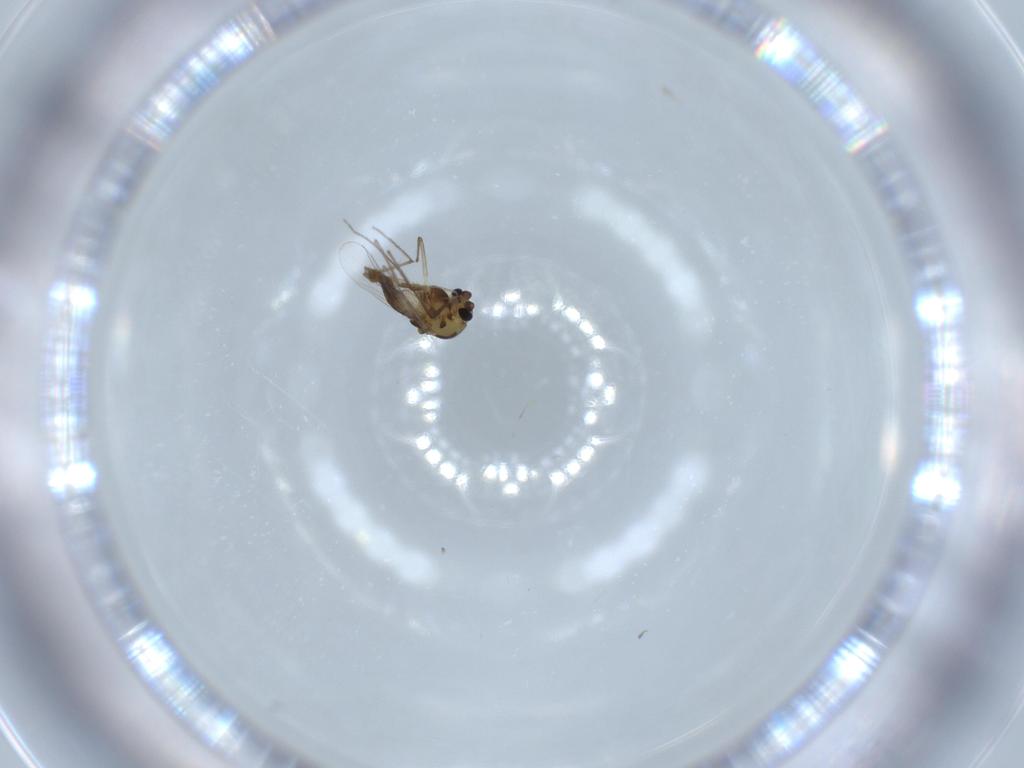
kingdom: Animalia
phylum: Arthropoda
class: Insecta
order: Diptera
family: Chironomidae
